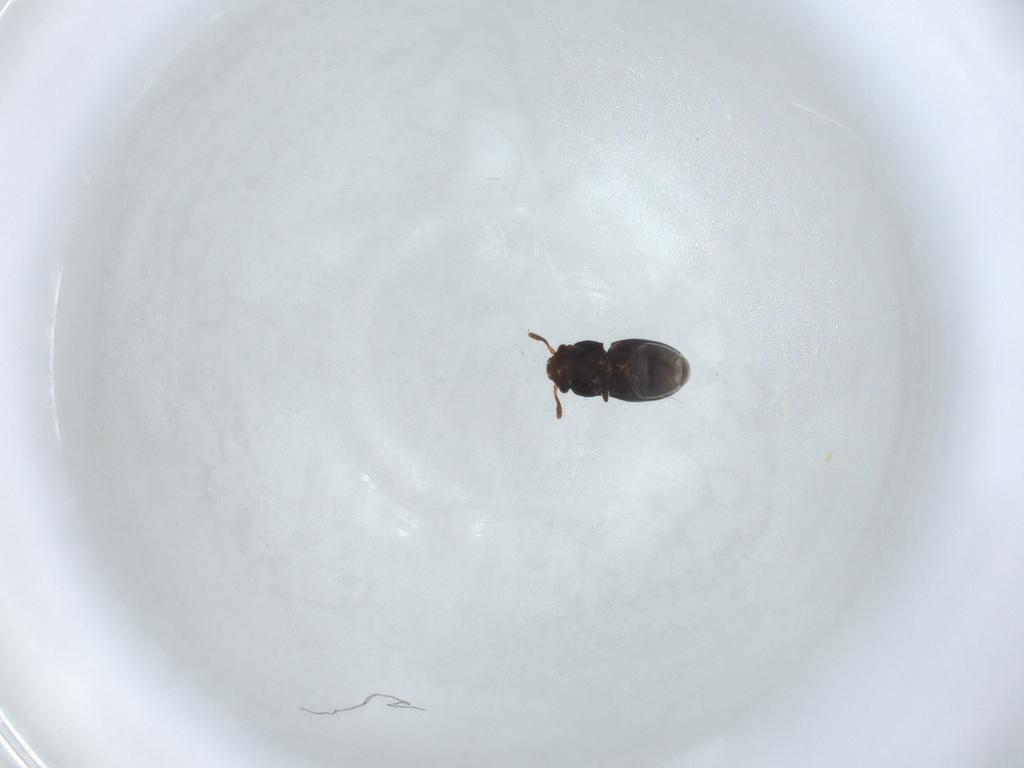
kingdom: Animalia
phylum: Arthropoda
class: Insecta
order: Coleoptera
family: Salpingidae
